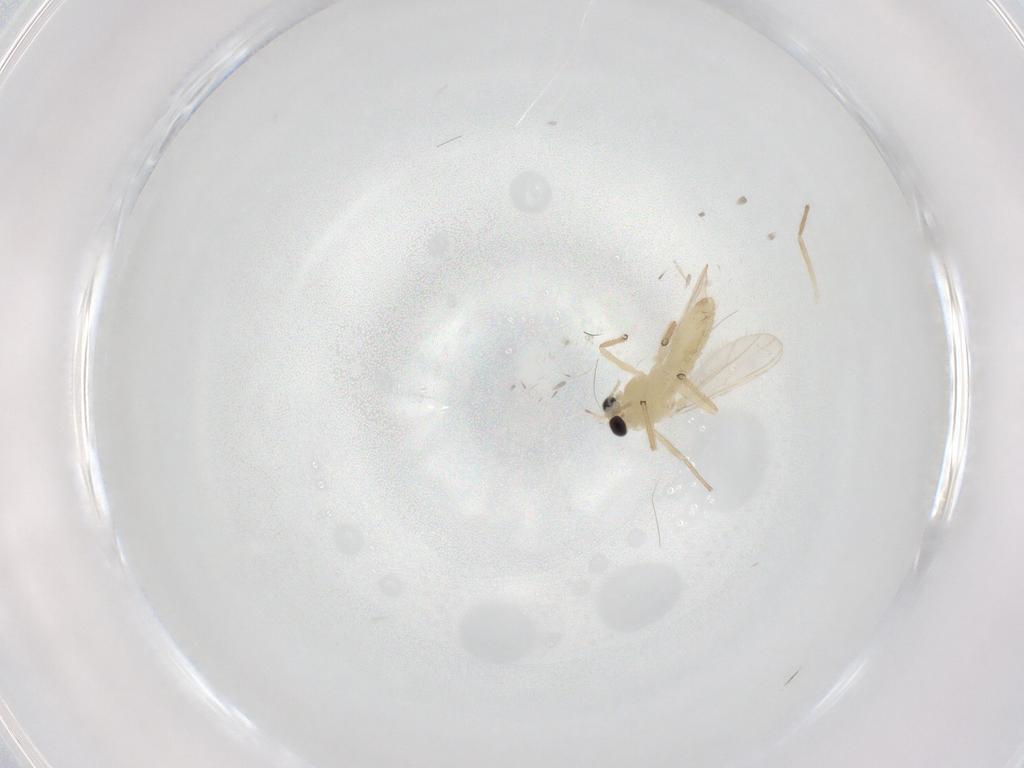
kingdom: Animalia
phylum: Arthropoda
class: Insecta
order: Diptera
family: Chironomidae
